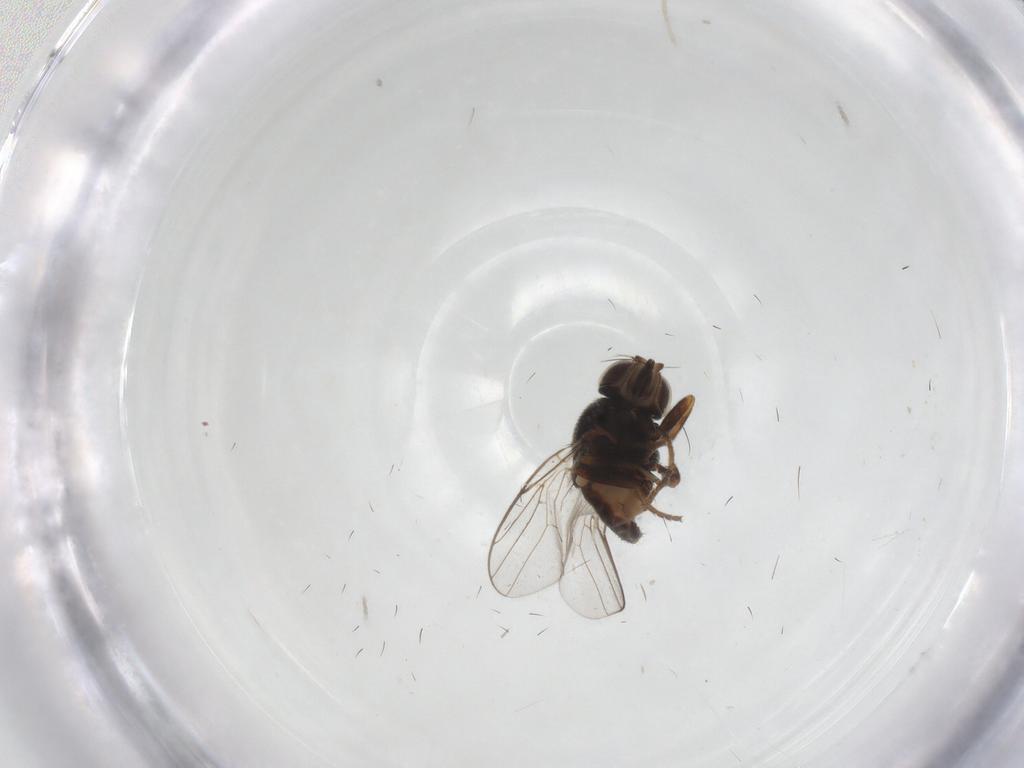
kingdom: Animalia
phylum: Arthropoda
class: Insecta
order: Diptera
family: Chloropidae
